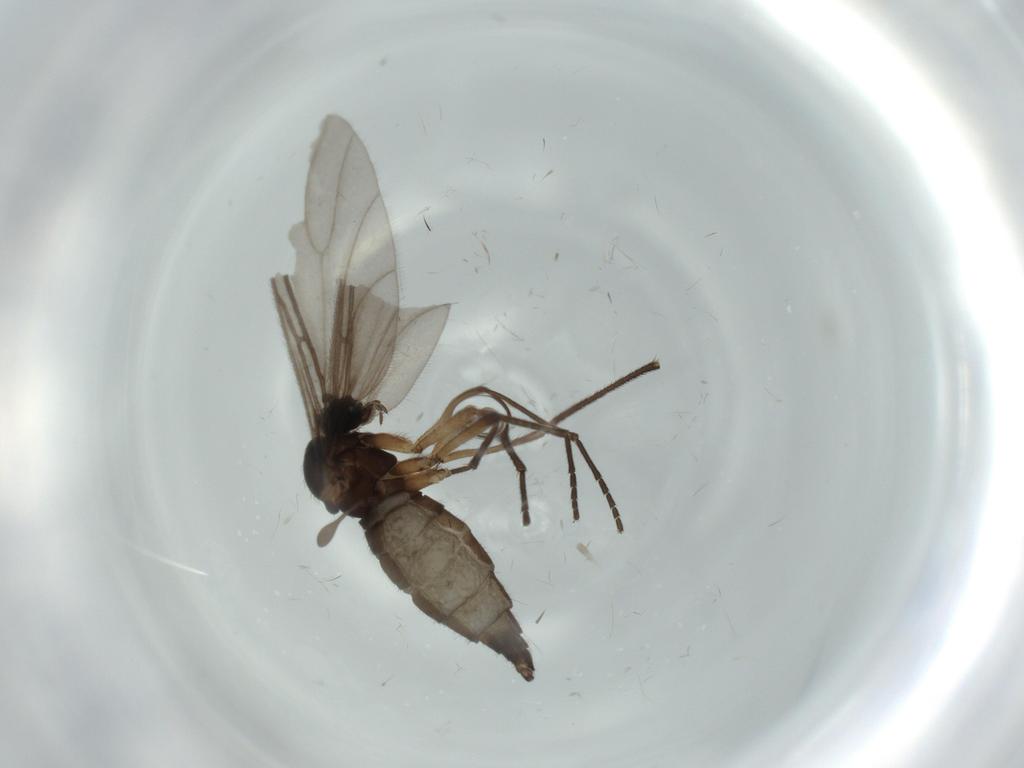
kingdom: Animalia
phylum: Arthropoda
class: Insecta
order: Diptera
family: Sciaridae
